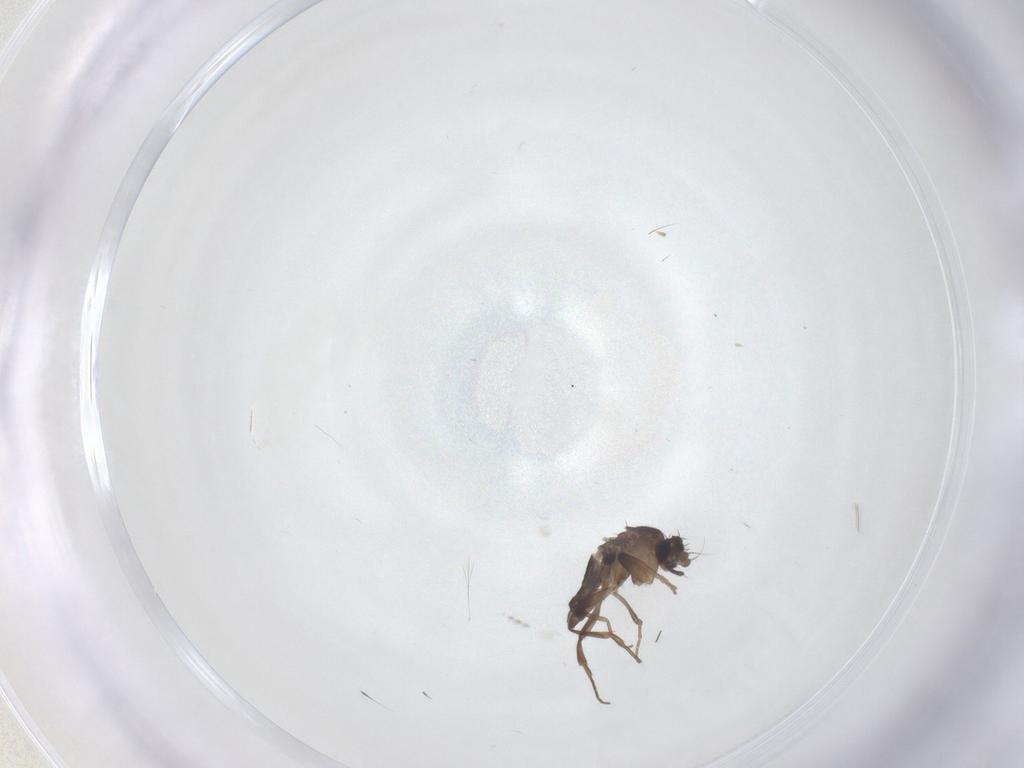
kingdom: Animalia
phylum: Arthropoda
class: Insecta
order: Diptera
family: Phoridae
